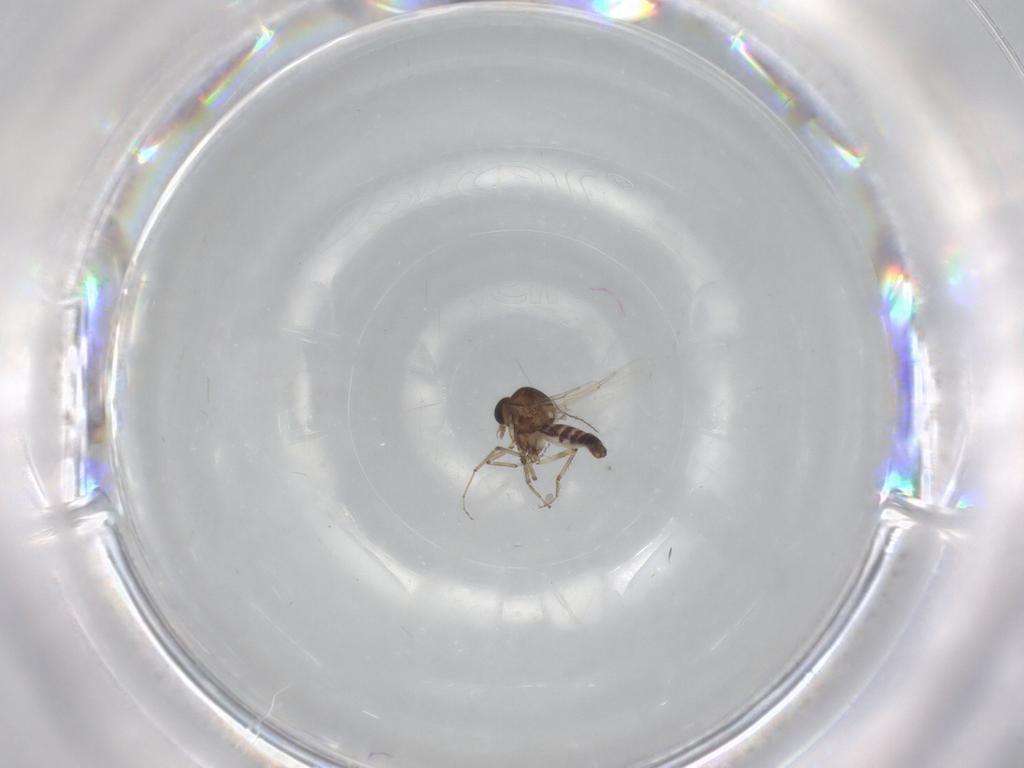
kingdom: Animalia
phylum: Arthropoda
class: Insecta
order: Diptera
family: Ceratopogonidae
